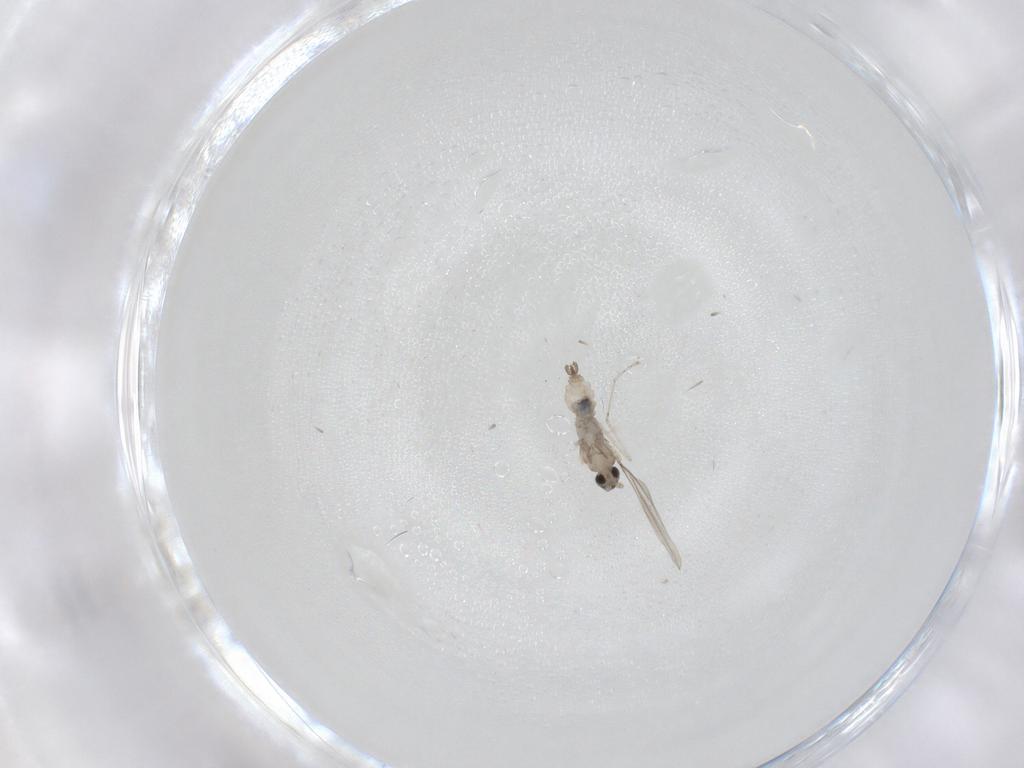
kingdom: Animalia
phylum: Arthropoda
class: Insecta
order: Diptera
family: Cecidomyiidae
